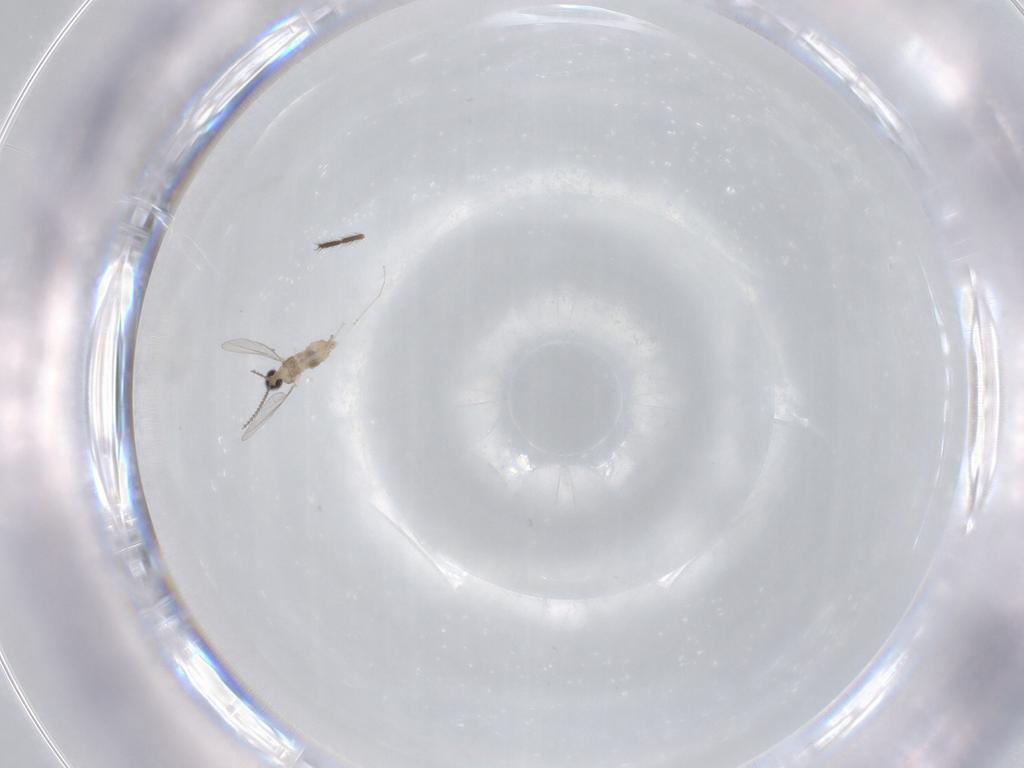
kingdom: Animalia
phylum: Arthropoda
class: Insecta
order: Diptera
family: Cecidomyiidae
